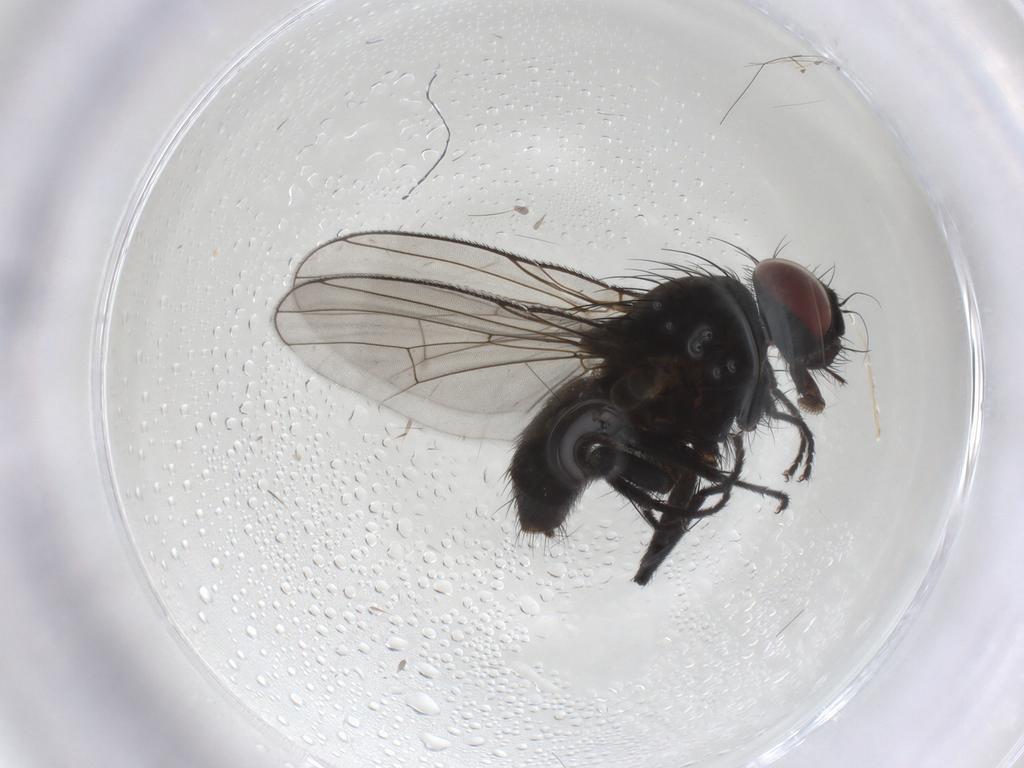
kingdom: Animalia
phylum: Arthropoda
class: Insecta
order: Diptera
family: Muscidae
